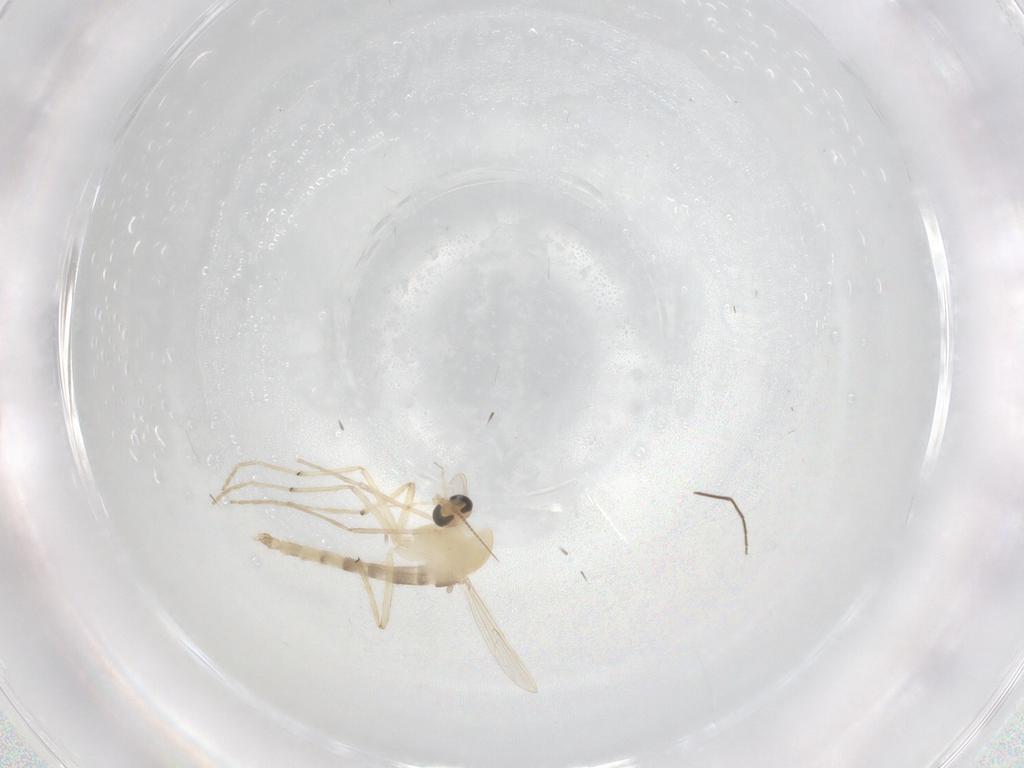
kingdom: Animalia
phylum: Arthropoda
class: Insecta
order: Diptera
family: Chironomidae
